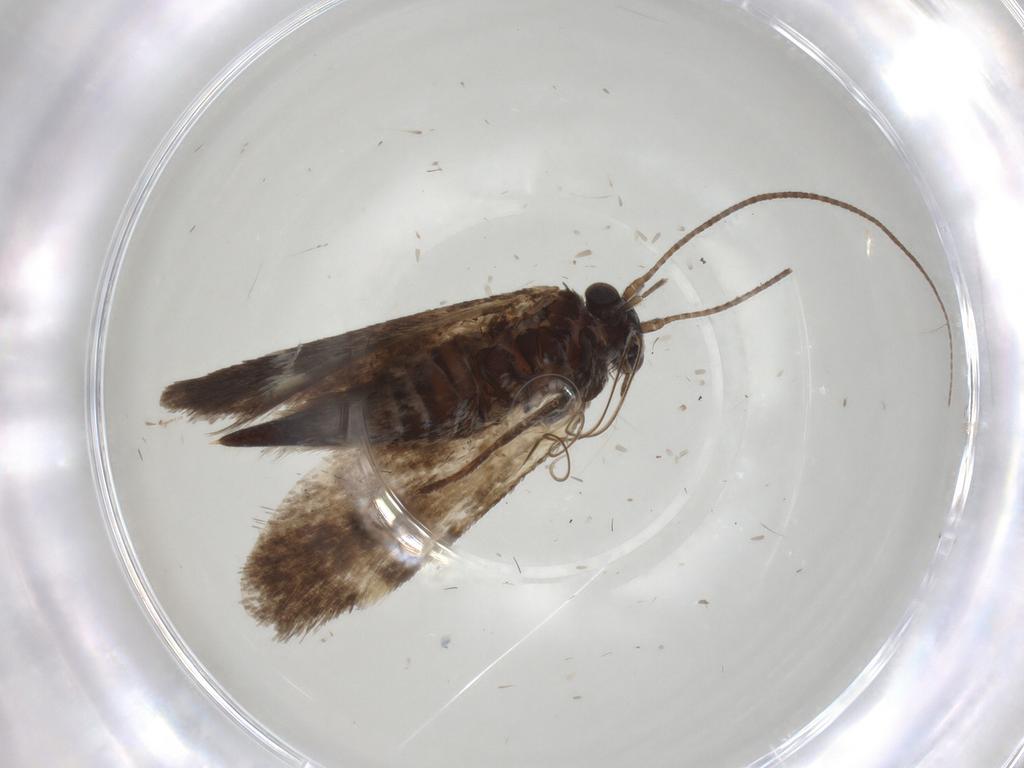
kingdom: Animalia
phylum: Arthropoda
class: Insecta
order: Lepidoptera
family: Adelidae
